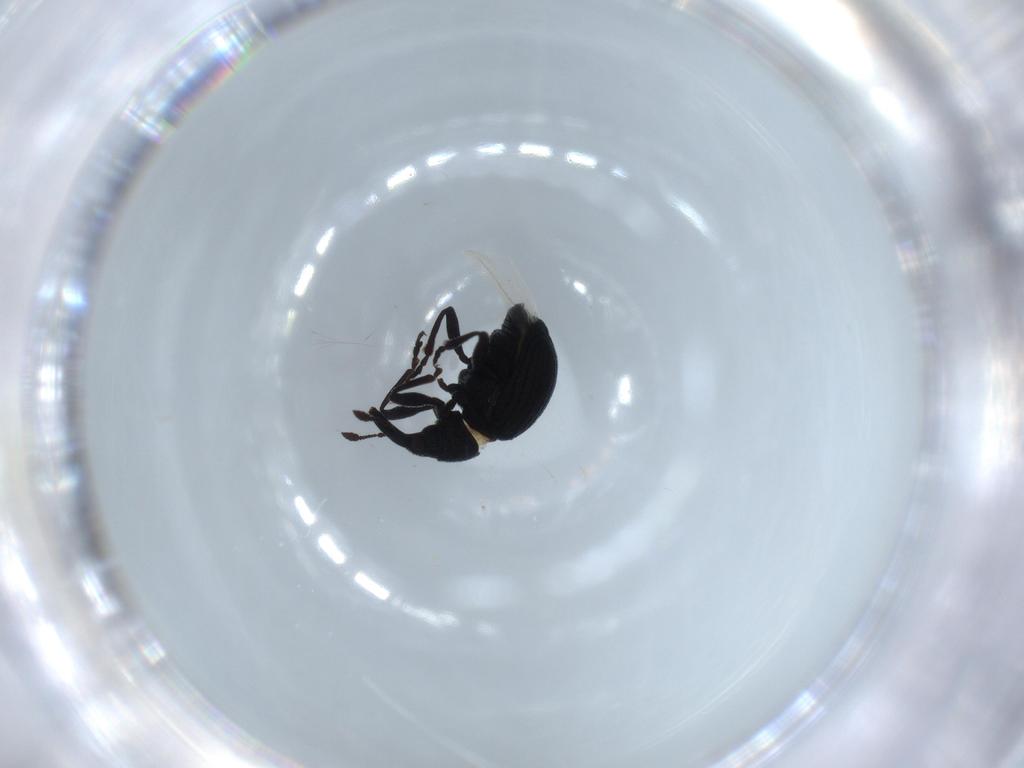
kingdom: Animalia
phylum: Arthropoda
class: Insecta
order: Coleoptera
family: Brentidae
